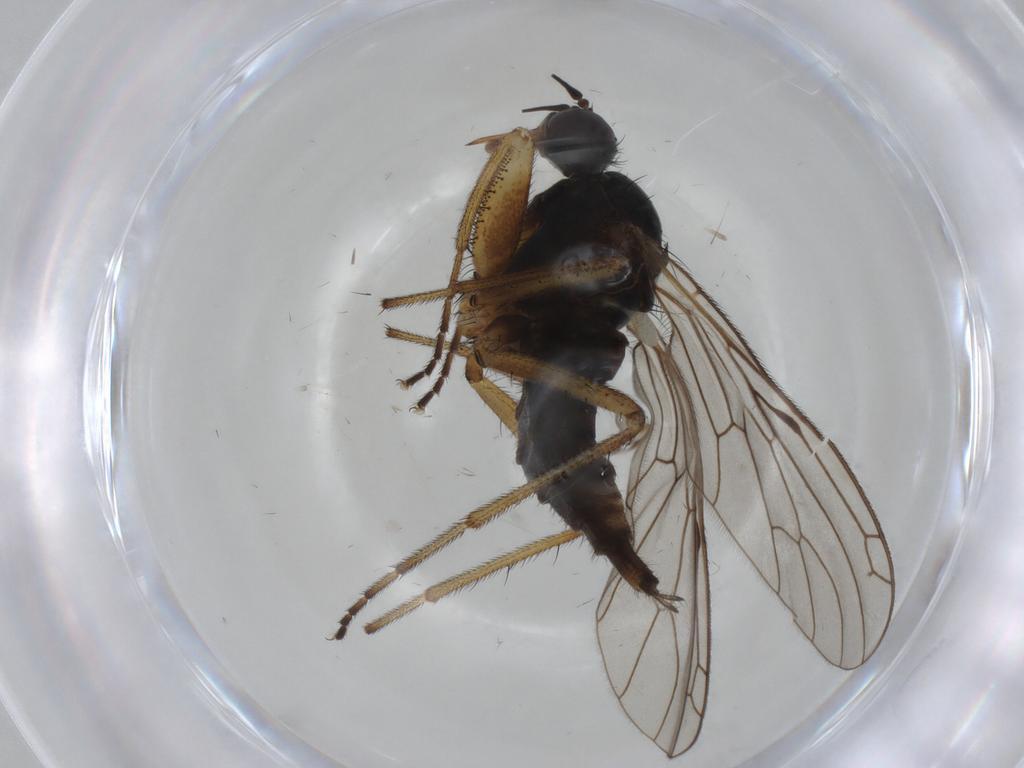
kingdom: Animalia
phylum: Arthropoda
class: Insecta
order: Diptera
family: Empididae
